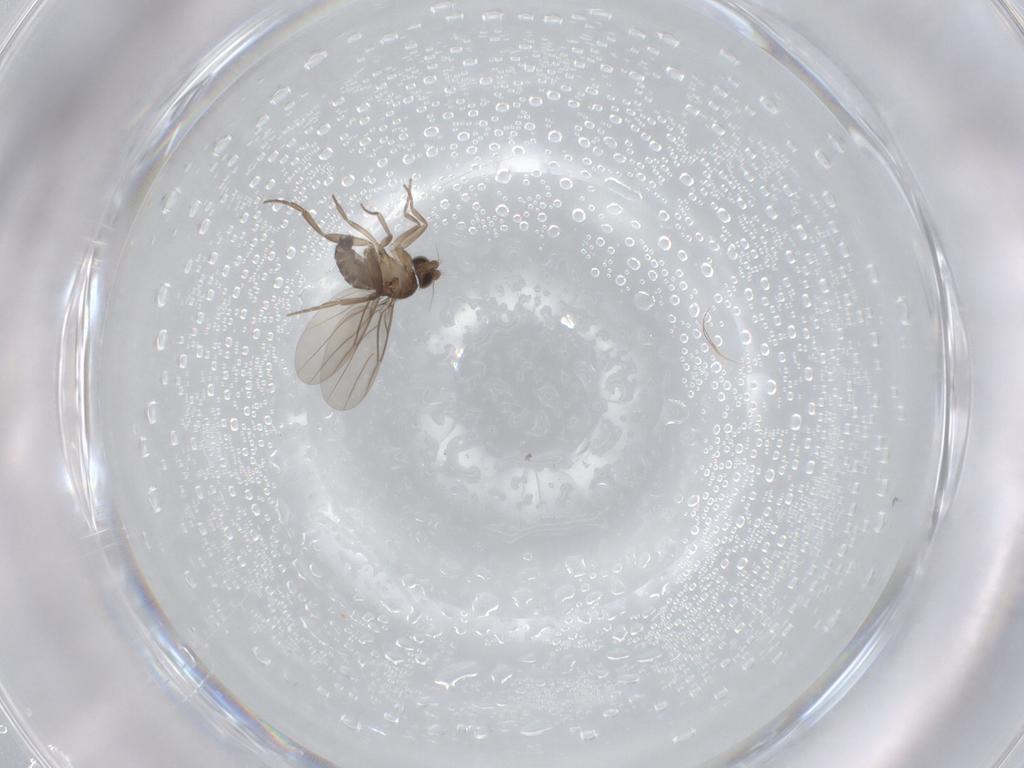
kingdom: Animalia
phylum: Arthropoda
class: Insecta
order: Diptera
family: Phoridae
